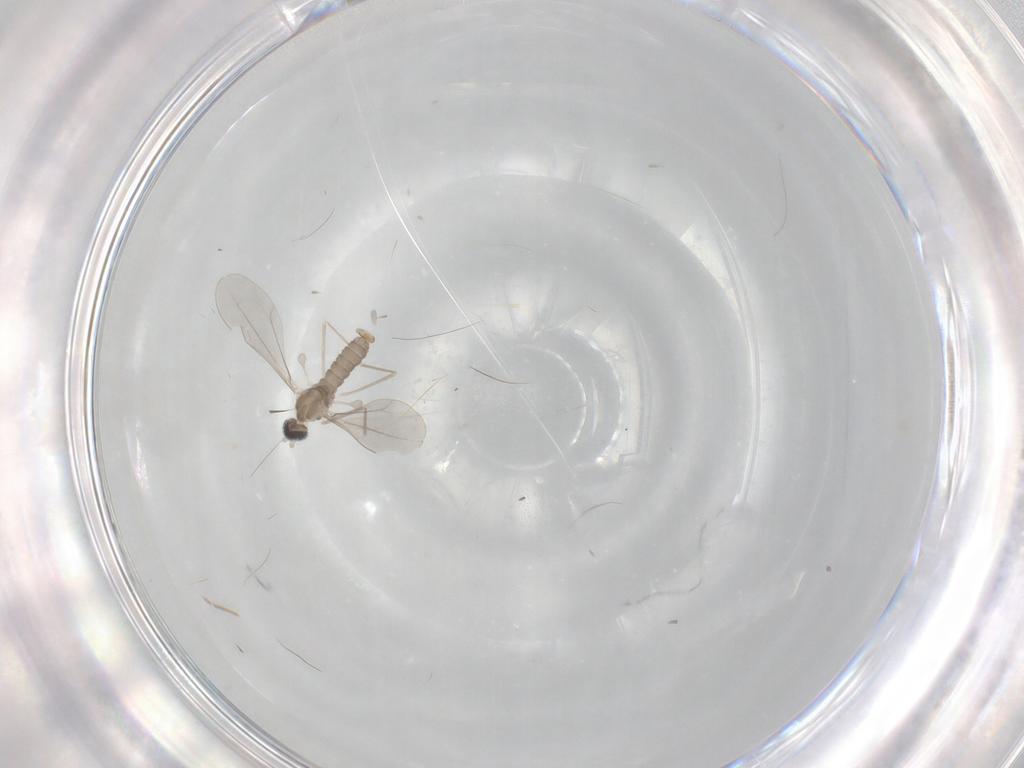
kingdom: Animalia
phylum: Arthropoda
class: Insecta
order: Diptera
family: Cecidomyiidae
